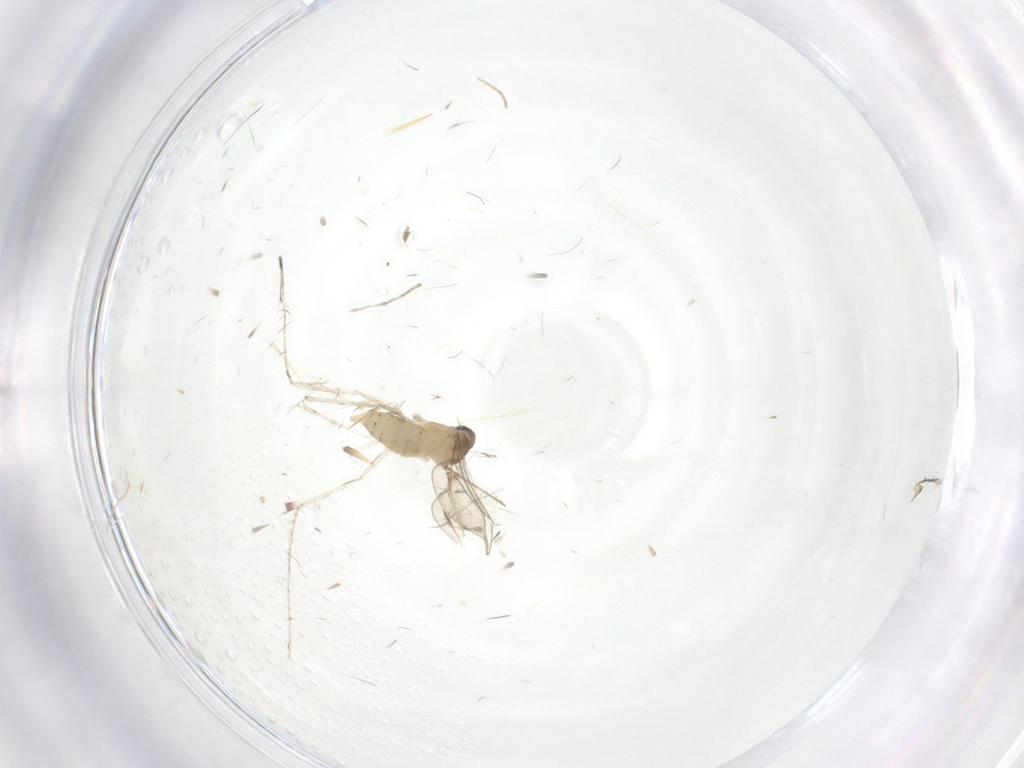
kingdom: Animalia
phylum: Arthropoda
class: Insecta
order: Diptera
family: Cecidomyiidae
